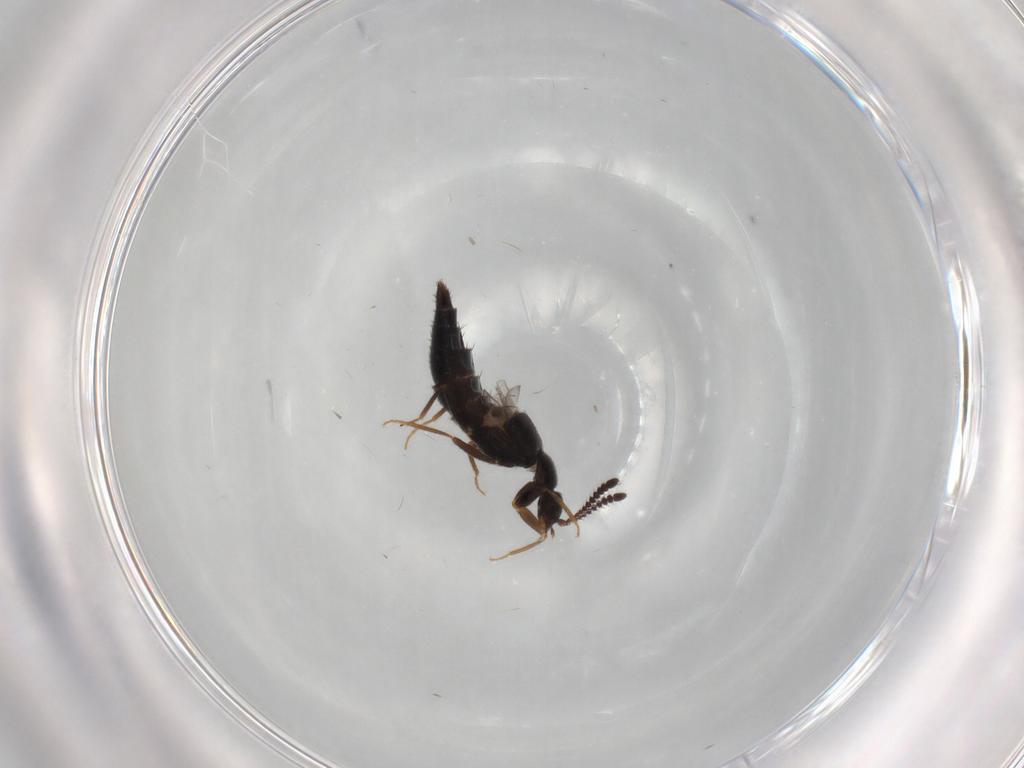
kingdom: Animalia
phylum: Arthropoda
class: Insecta
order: Coleoptera
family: Staphylinidae
